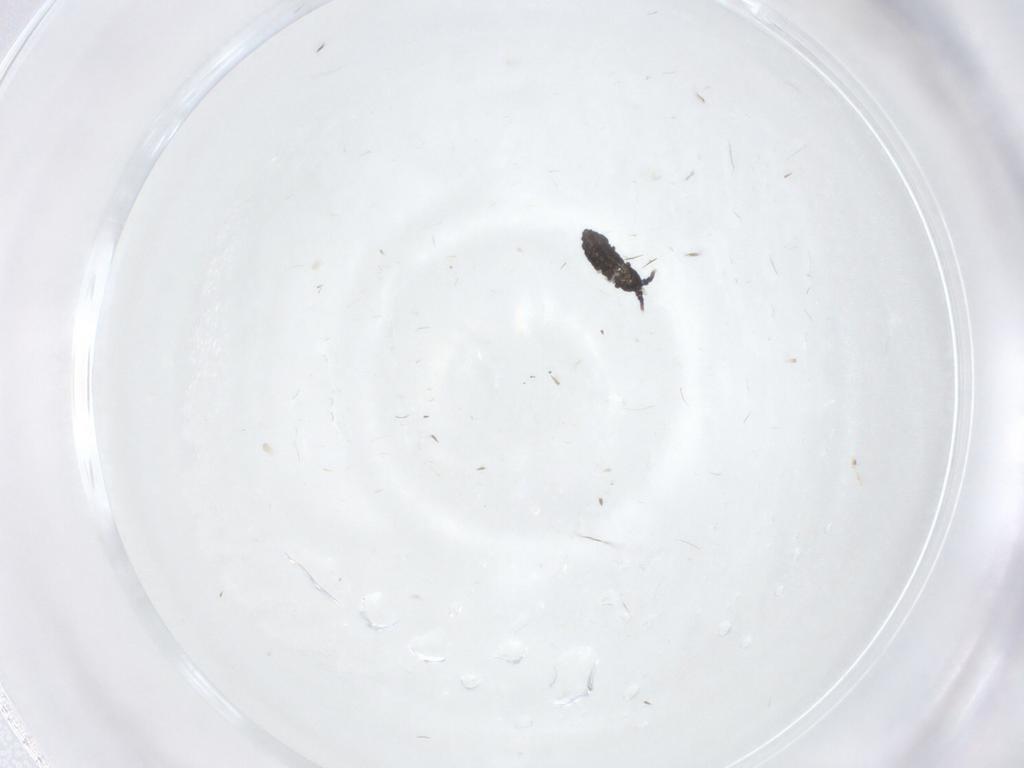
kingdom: Animalia
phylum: Arthropoda
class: Collembola
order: Poduromorpha
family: Neanuridae
